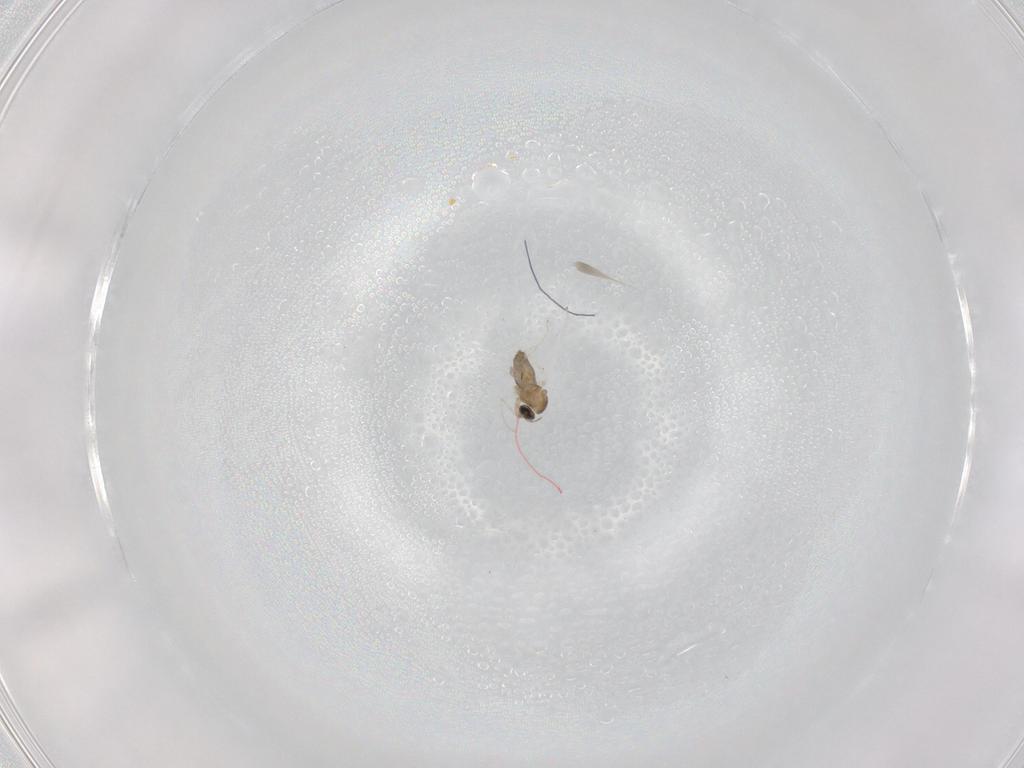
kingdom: Animalia
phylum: Arthropoda
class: Insecta
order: Diptera
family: Cecidomyiidae
